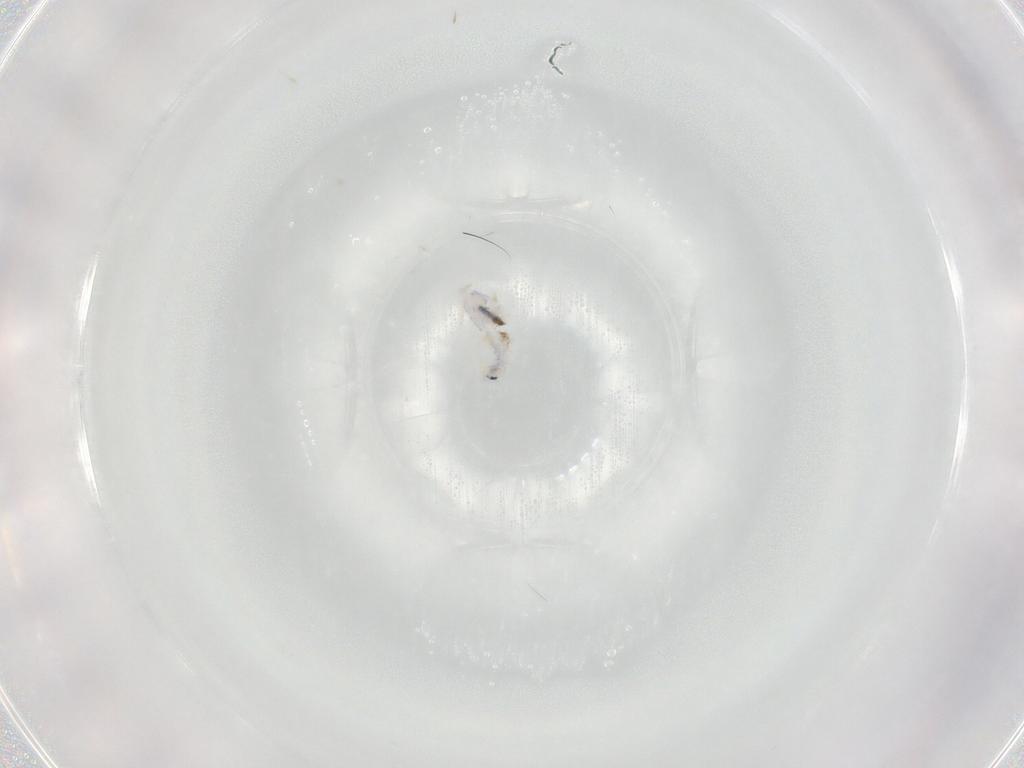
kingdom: Animalia
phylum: Arthropoda
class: Collembola
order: Entomobryomorpha
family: Entomobryidae
